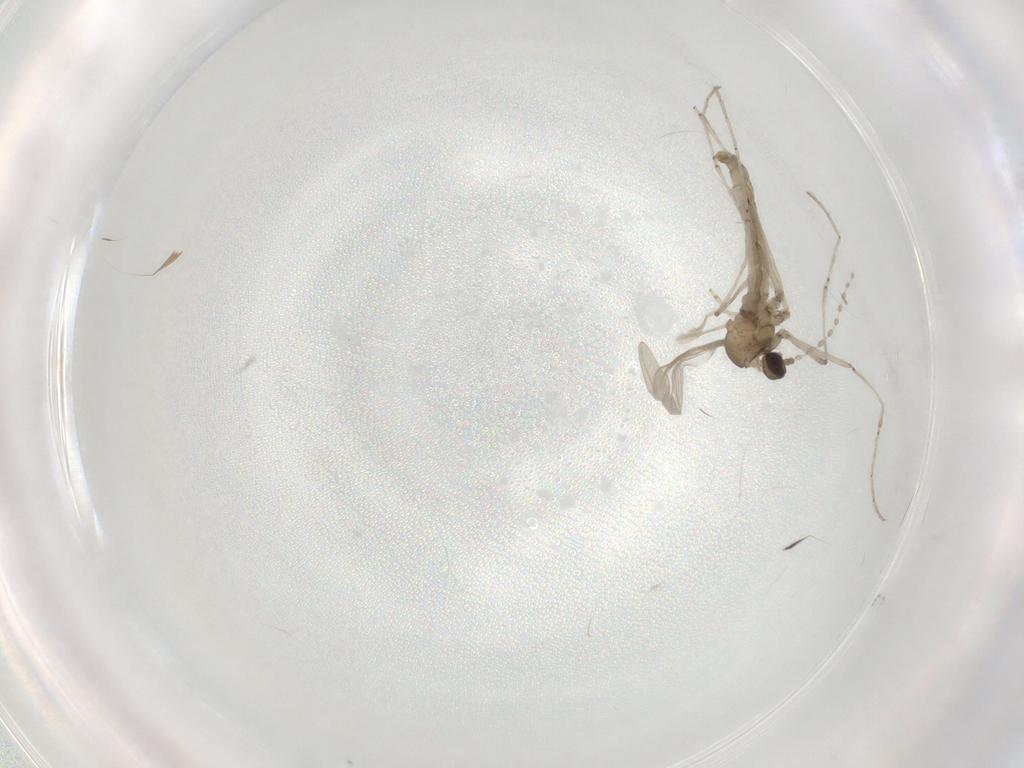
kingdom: Animalia
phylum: Arthropoda
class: Insecta
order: Diptera
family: Cecidomyiidae
